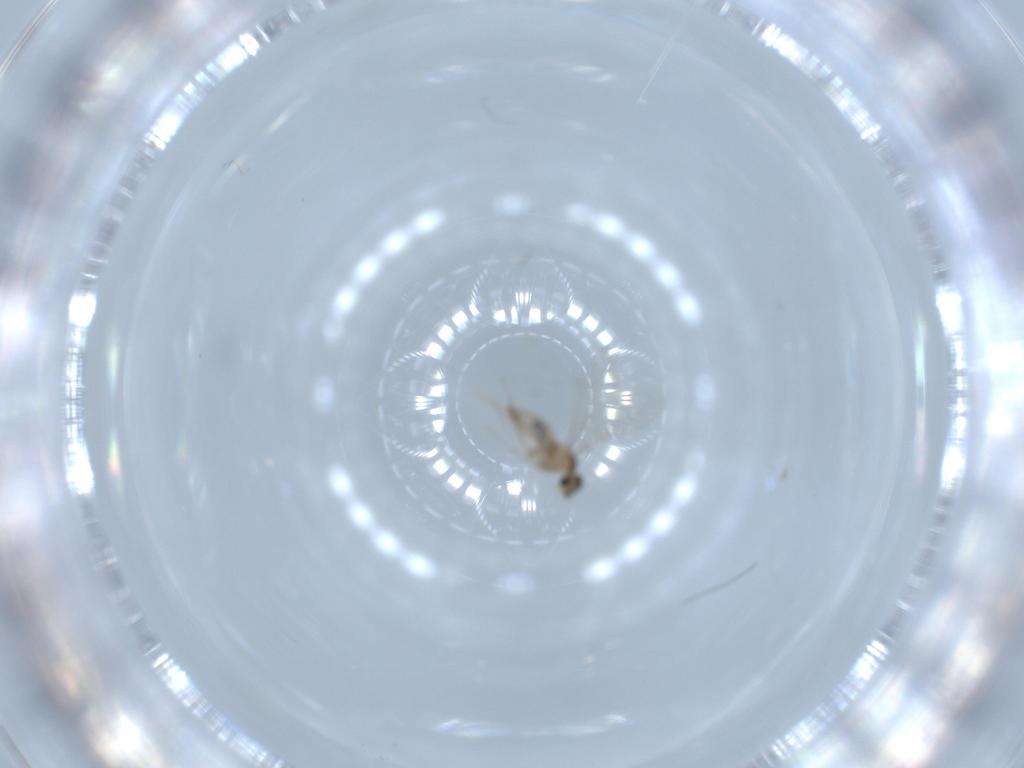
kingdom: Animalia
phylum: Arthropoda
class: Insecta
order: Diptera
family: Cecidomyiidae
